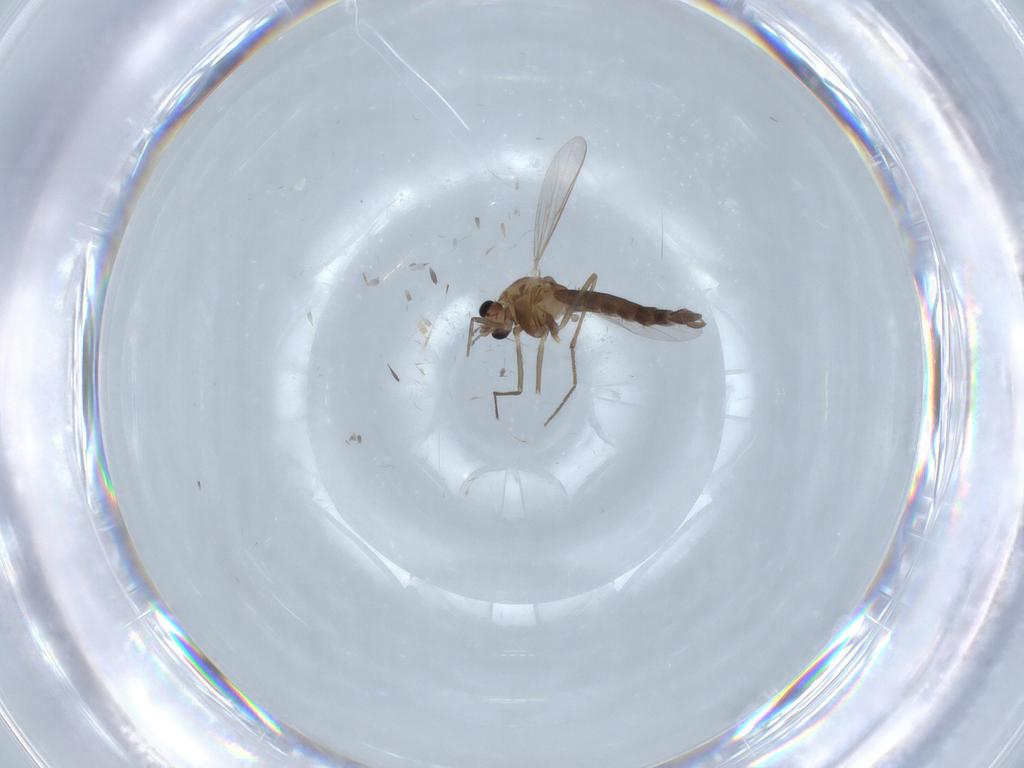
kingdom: Animalia
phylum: Arthropoda
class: Insecta
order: Diptera
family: Chironomidae
